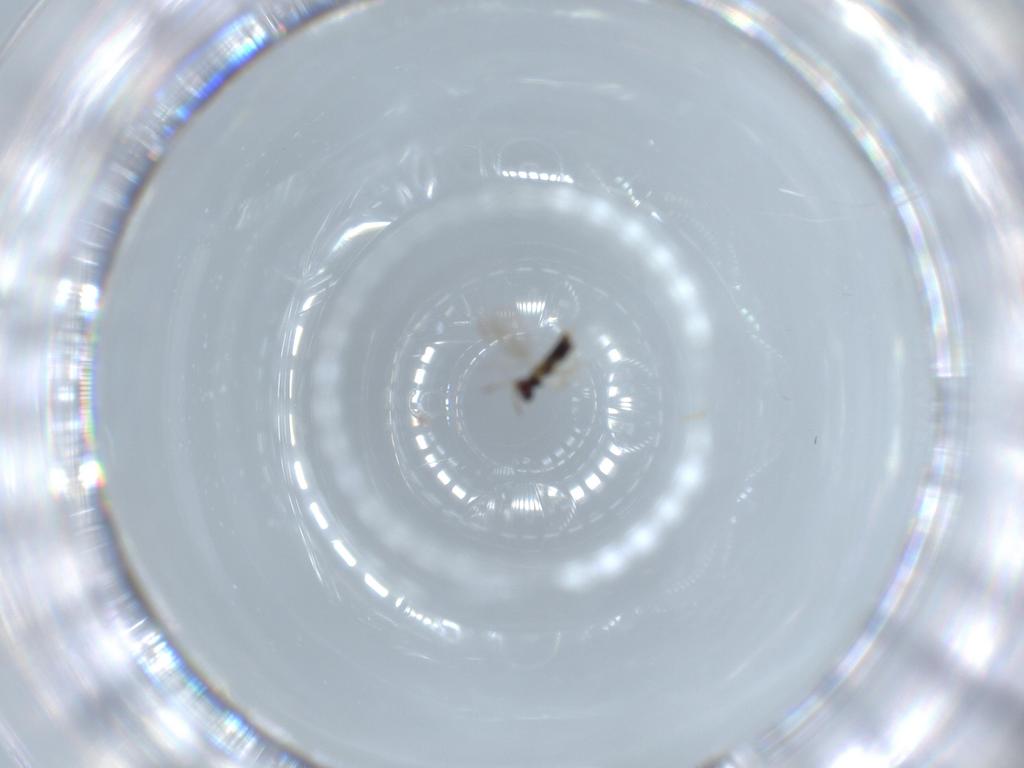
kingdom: Animalia
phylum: Arthropoda
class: Insecta
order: Hymenoptera
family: Aphelinidae
